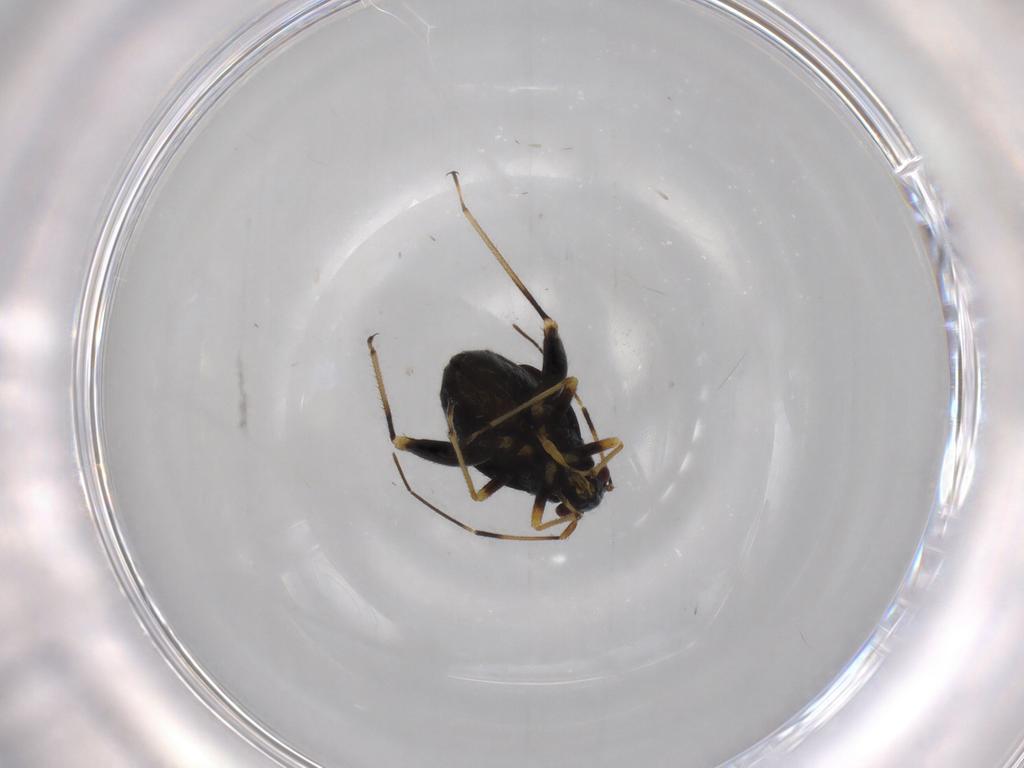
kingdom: Animalia
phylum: Arthropoda
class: Insecta
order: Hemiptera
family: Miridae
